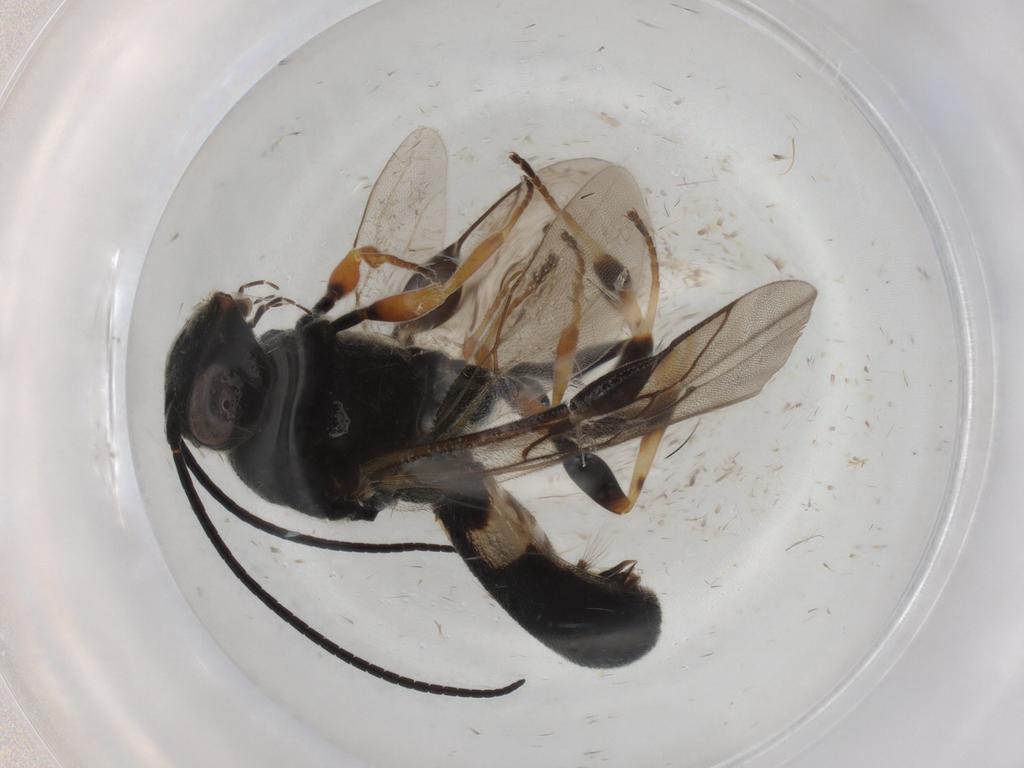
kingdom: Animalia
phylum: Arthropoda
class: Insecta
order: Hymenoptera
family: Braconidae
